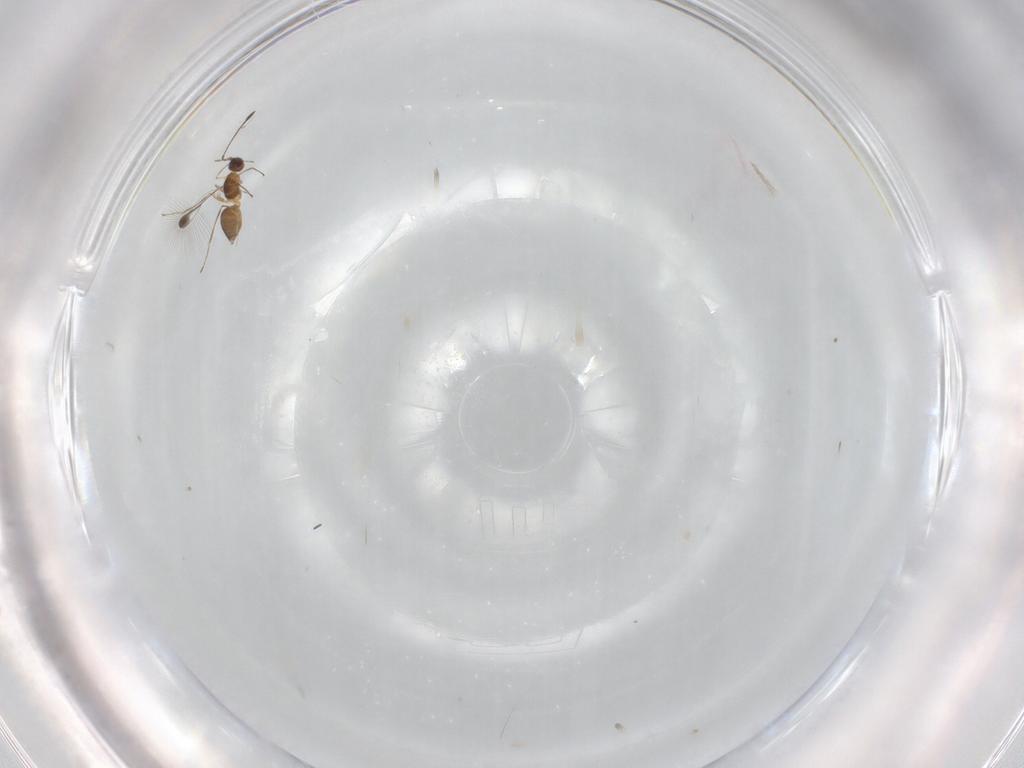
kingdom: Animalia
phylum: Arthropoda
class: Insecta
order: Hymenoptera
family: Mymaridae
